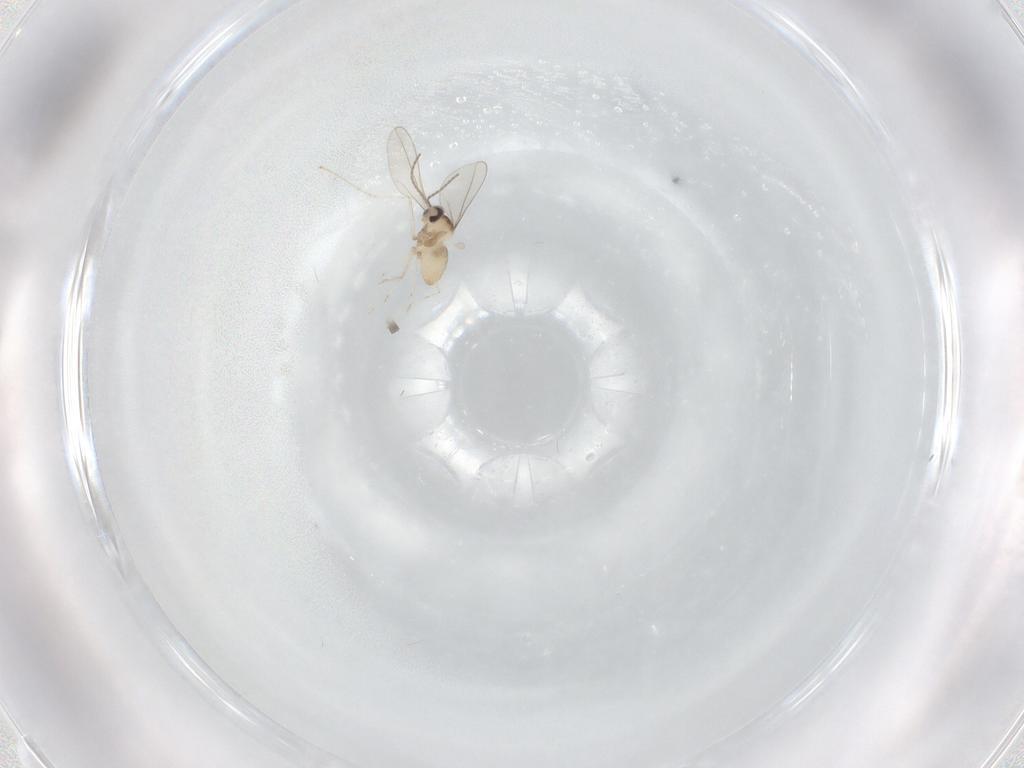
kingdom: Animalia
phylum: Arthropoda
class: Insecta
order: Diptera
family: Cecidomyiidae
